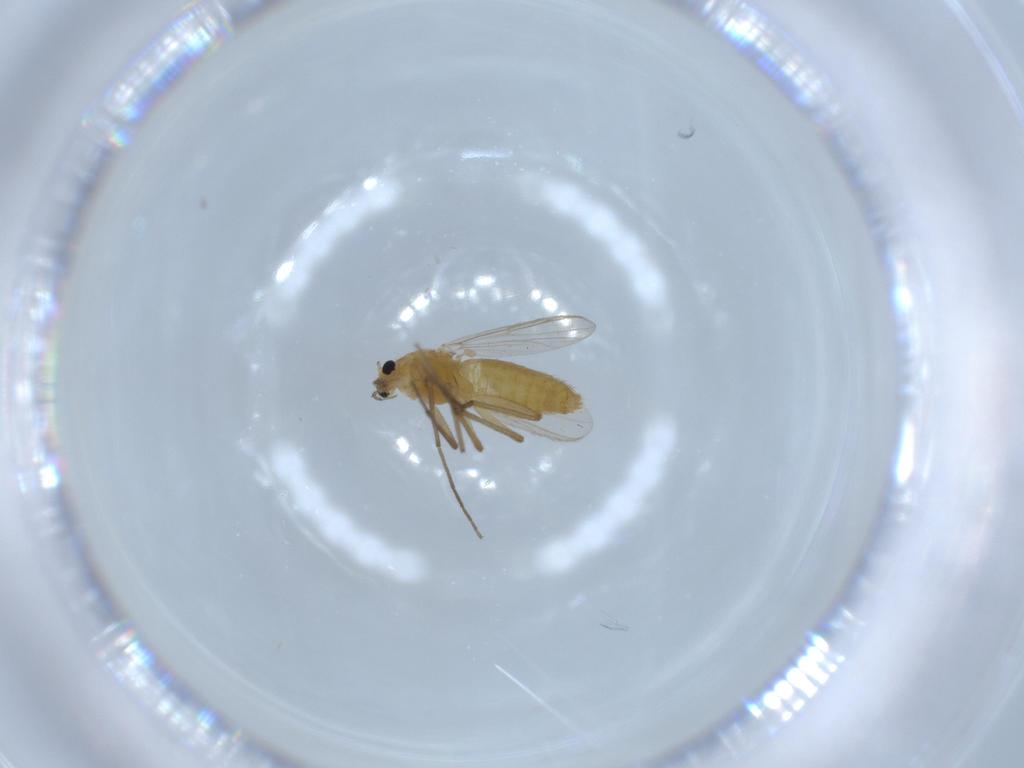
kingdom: Animalia
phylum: Arthropoda
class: Insecta
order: Diptera
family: Chironomidae
